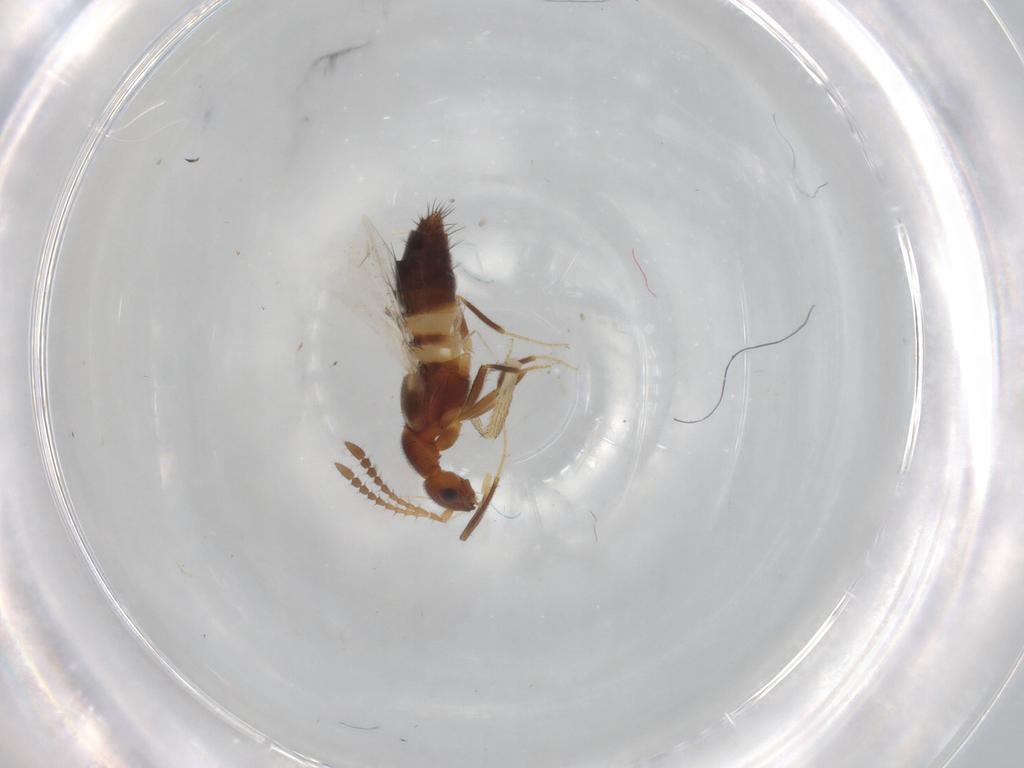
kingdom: Animalia
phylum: Arthropoda
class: Insecta
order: Coleoptera
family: Staphylinidae
